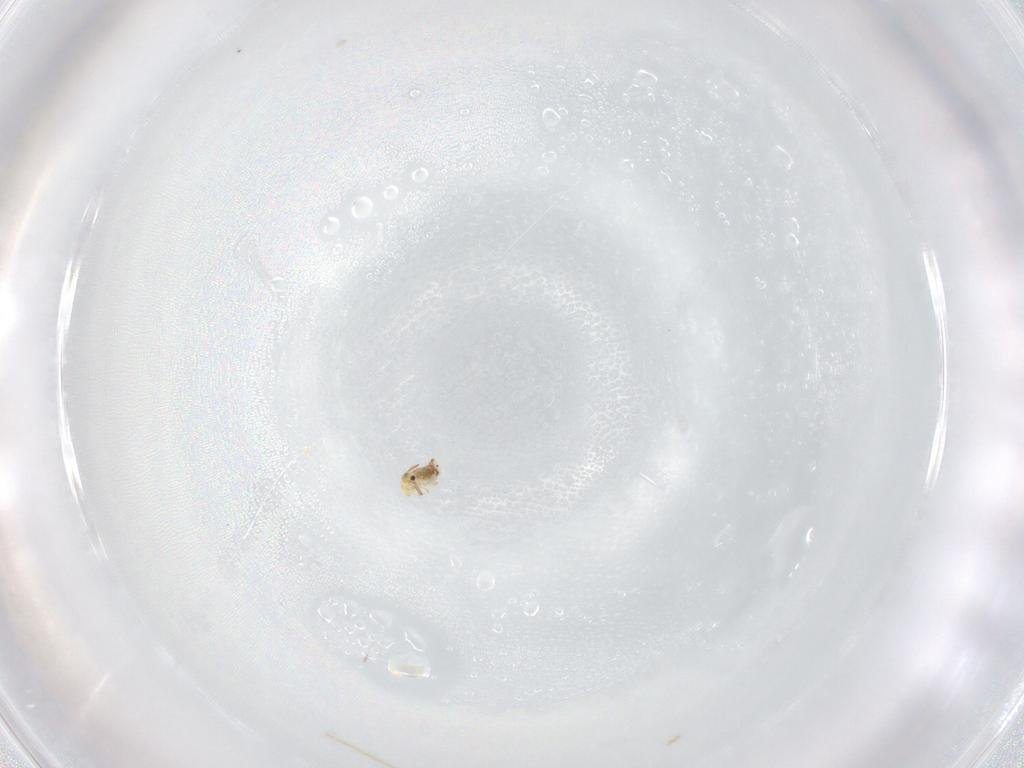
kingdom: Animalia
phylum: Arthropoda
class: Collembola
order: Symphypleona
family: Bourletiellidae
